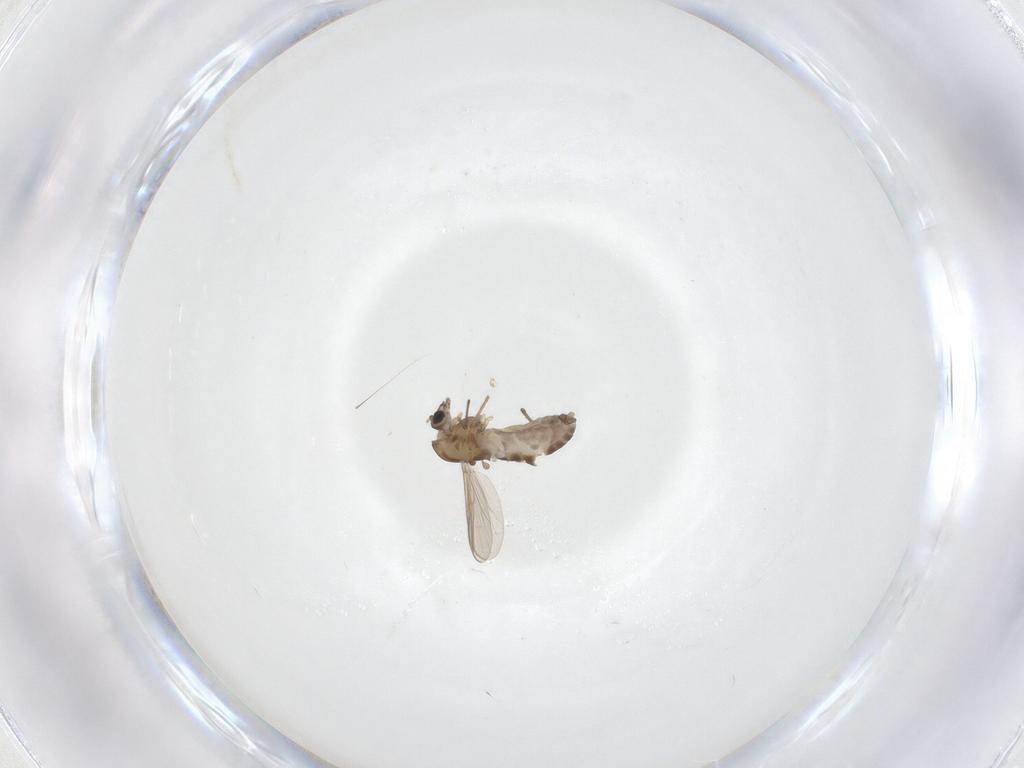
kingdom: Animalia
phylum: Arthropoda
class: Insecta
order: Diptera
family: Chironomidae
